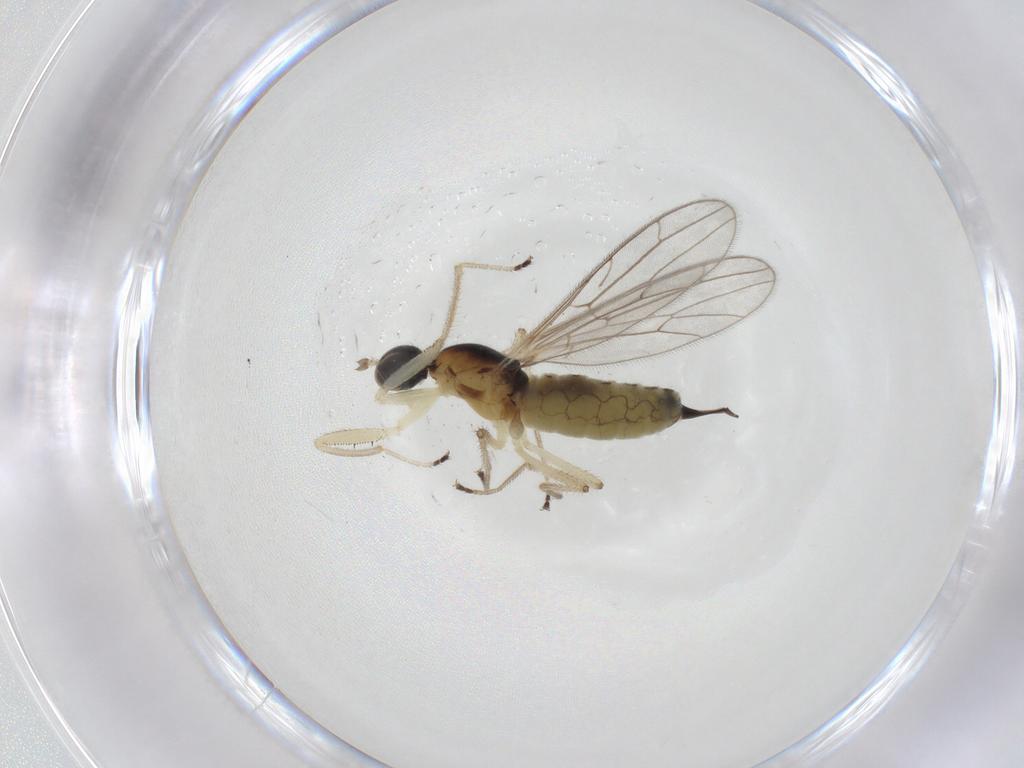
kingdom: Animalia
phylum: Arthropoda
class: Insecta
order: Diptera
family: Empididae
